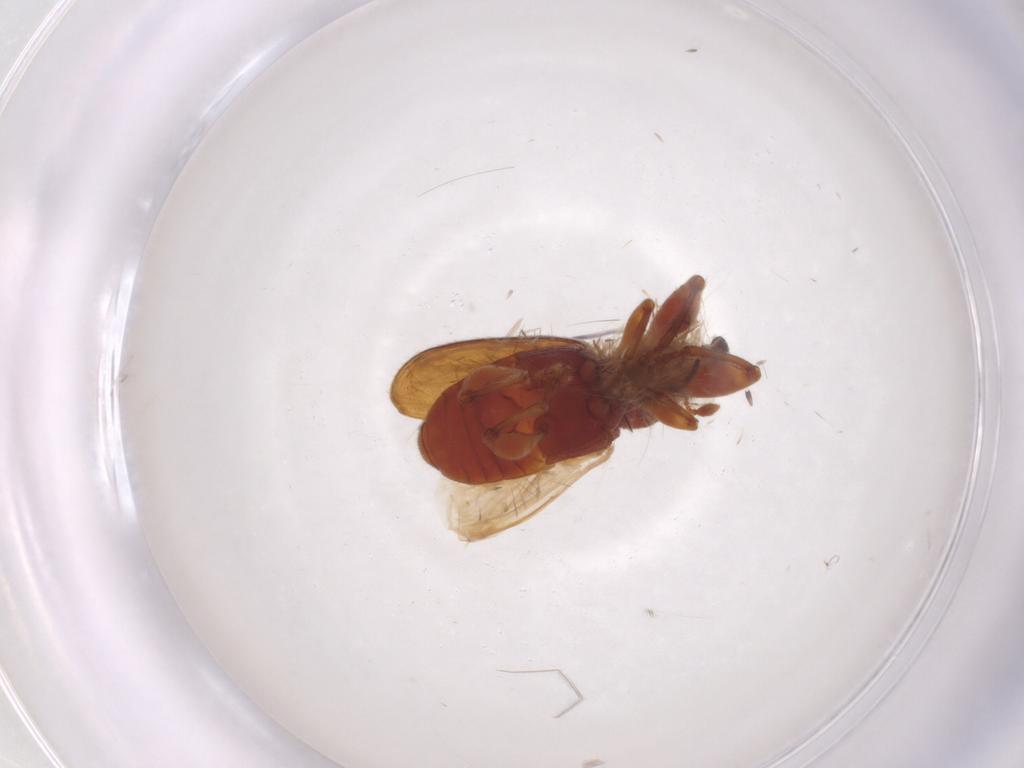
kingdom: Animalia
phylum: Arthropoda
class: Insecta
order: Coleoptera
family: Curculionidae
